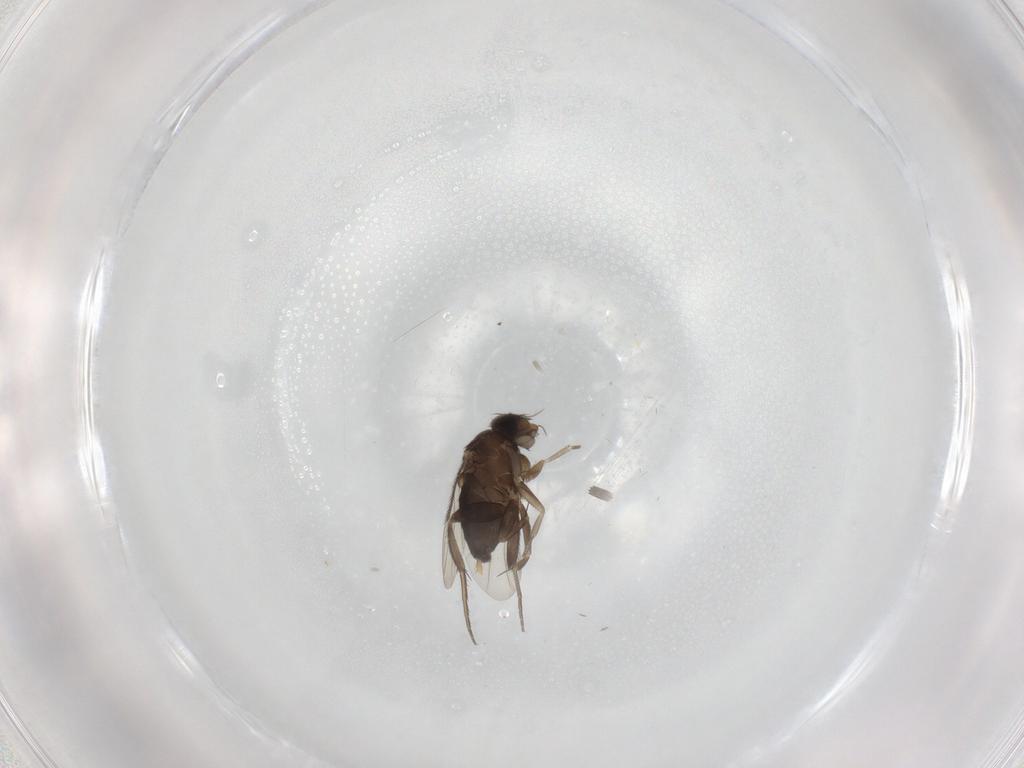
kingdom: Animalia
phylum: Arthropoda
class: Insecta
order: Diptera
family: Phoridae
